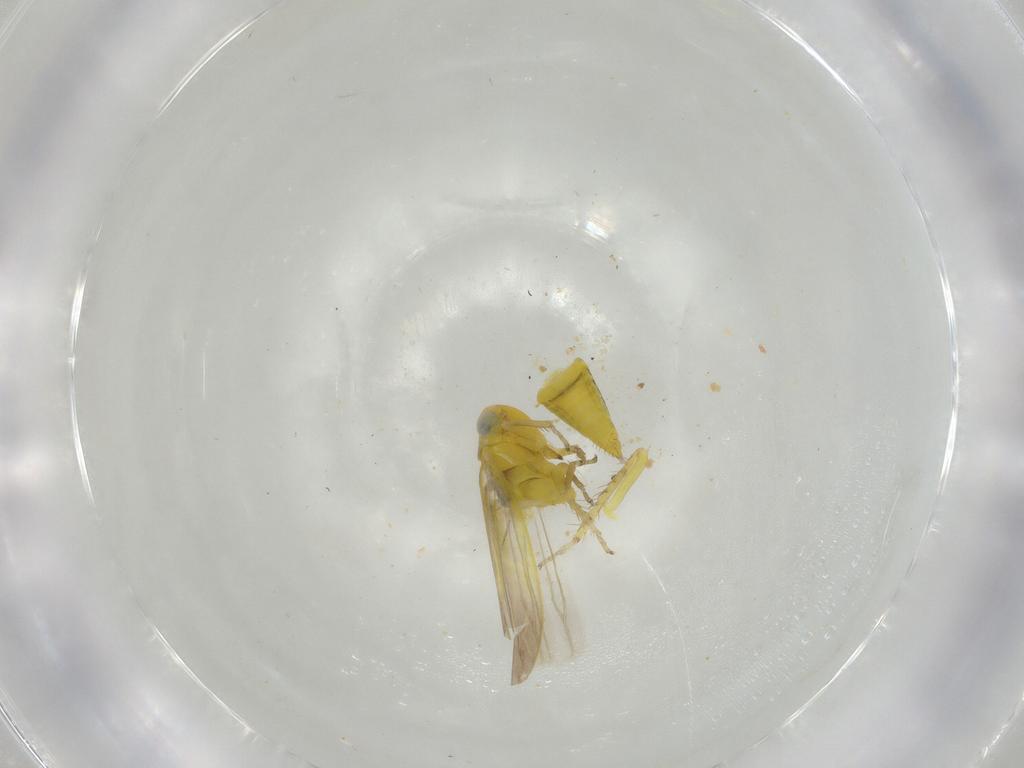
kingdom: Animalia
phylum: Arthropoda
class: Insecta
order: Hemiptera
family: Cicadellidae
